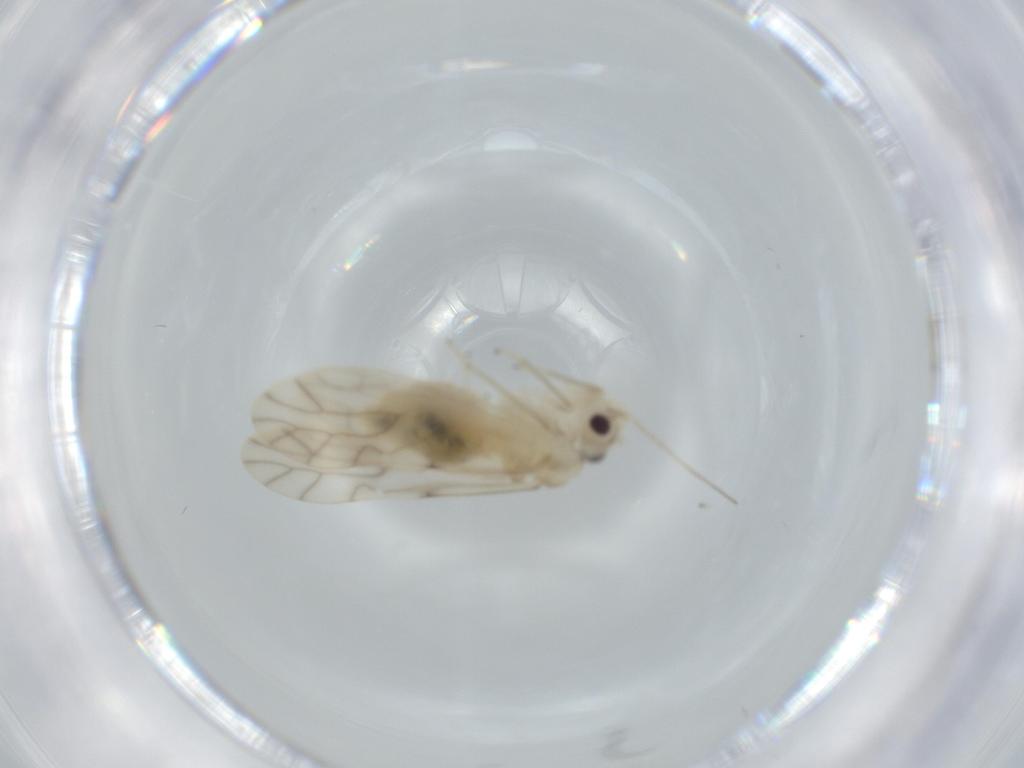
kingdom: Animalia
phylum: Arthropoda
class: Insecta
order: Psocodea
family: Caeciliusidae
